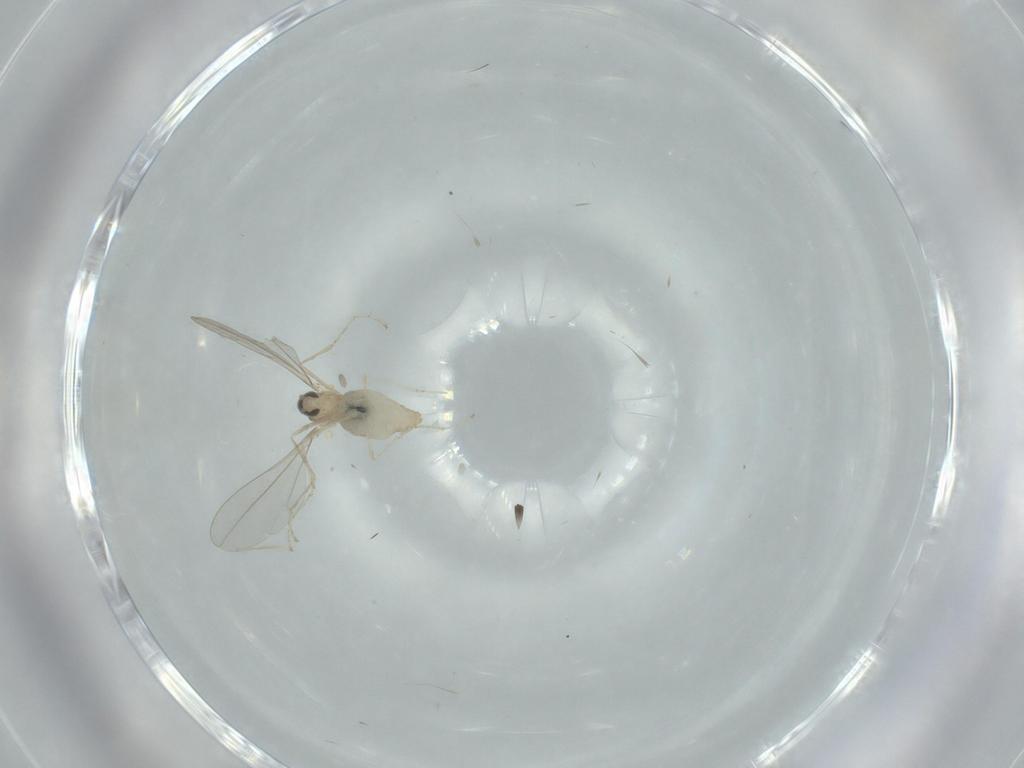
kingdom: Animalia
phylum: Arthropoda
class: Insecta
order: Diptera
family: Cecidomyiidae
